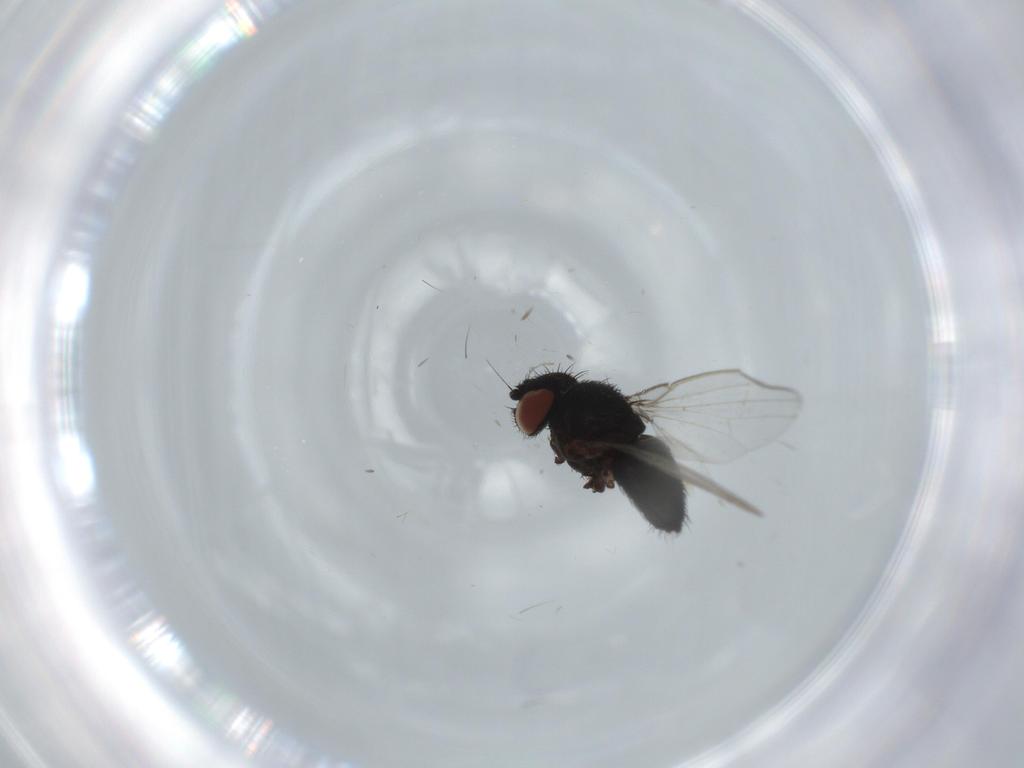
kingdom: Animalia
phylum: Arthropoda
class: Insecta
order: Diptera
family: Milichiidae
